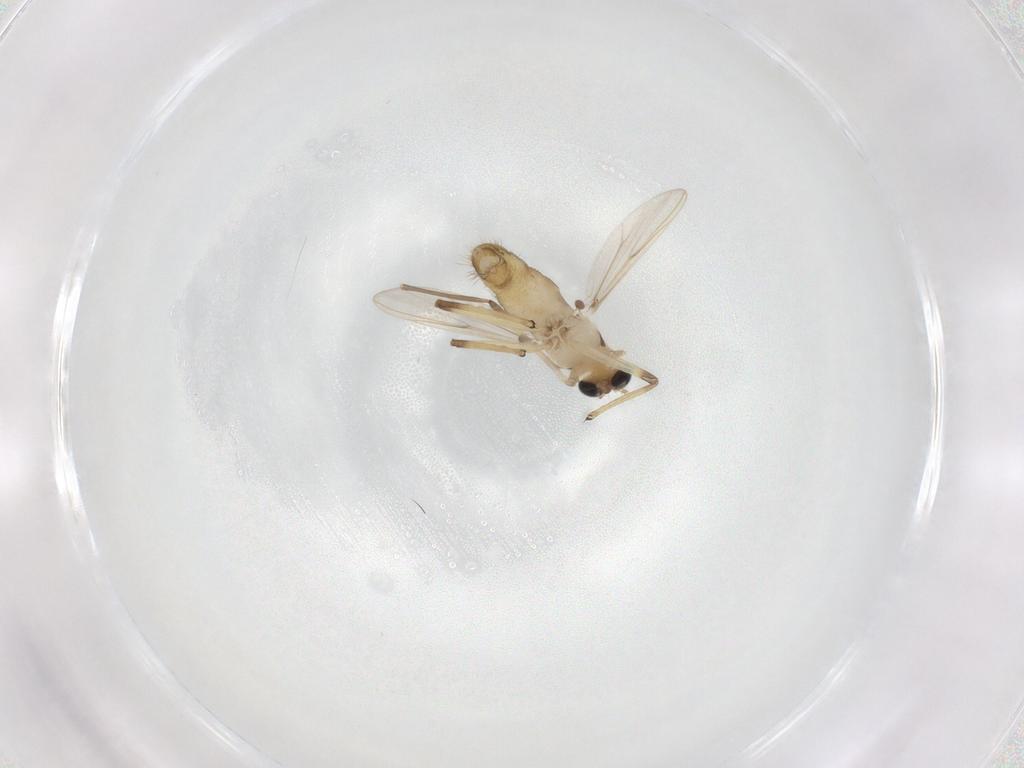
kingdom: Animalia
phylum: Arthropoda
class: Insecta
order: Diptera
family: Chironomidae
